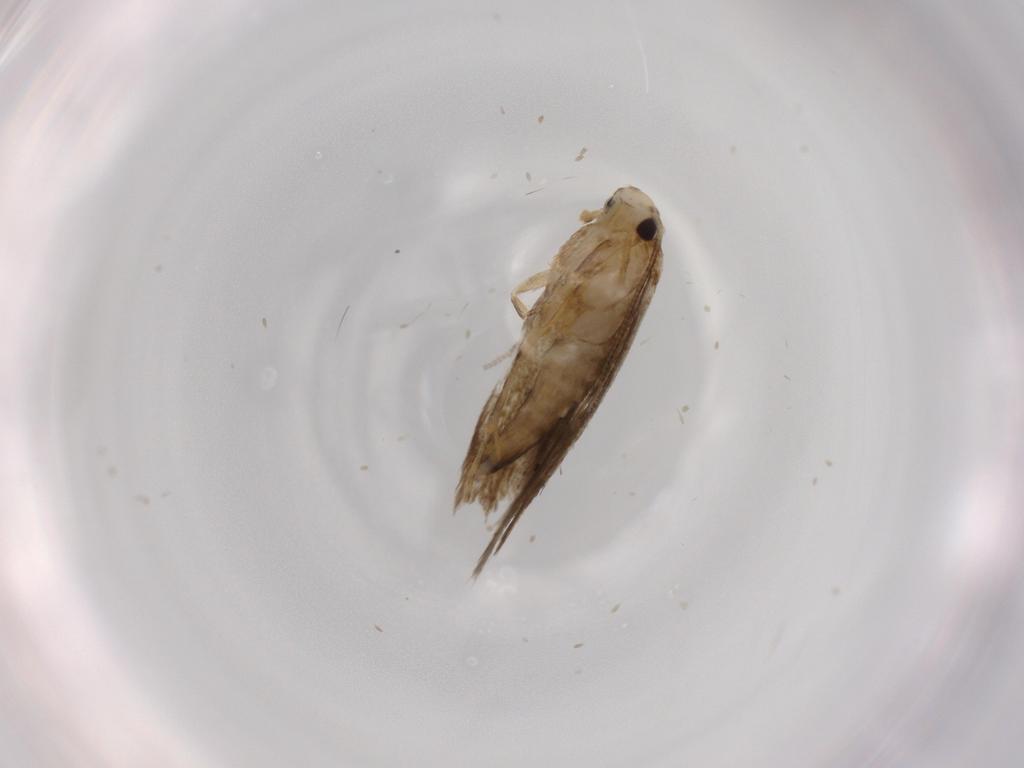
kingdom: Animalia
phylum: Arthropoda
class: Insecta
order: Lepidoptera
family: Tineidae
